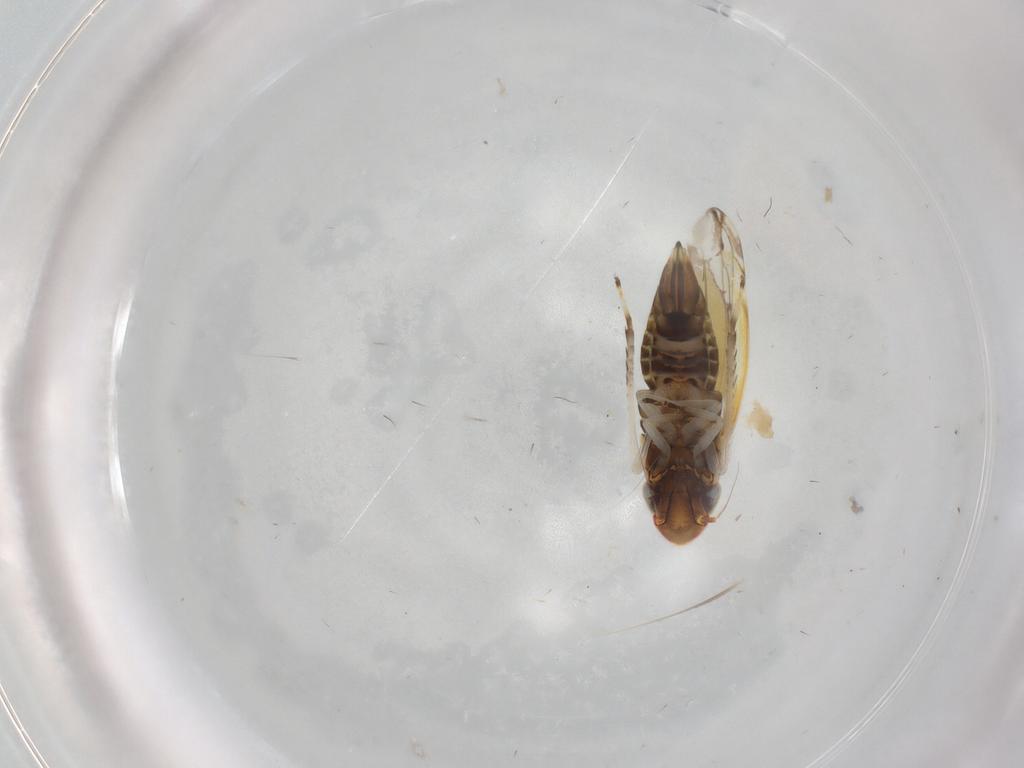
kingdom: Animalia
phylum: Arthropoda
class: Insecta
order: Hemiptera
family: Cicadellidae
